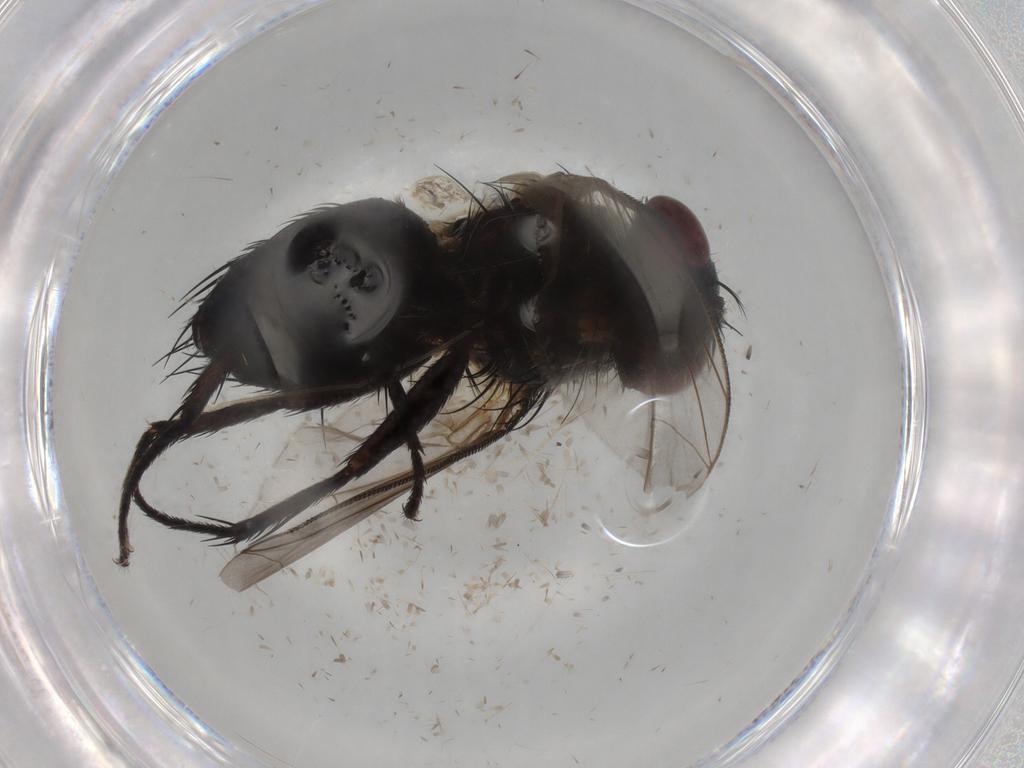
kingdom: Animalia
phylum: Arthropoda
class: Insecta
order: Diptera
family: Tachinidae
